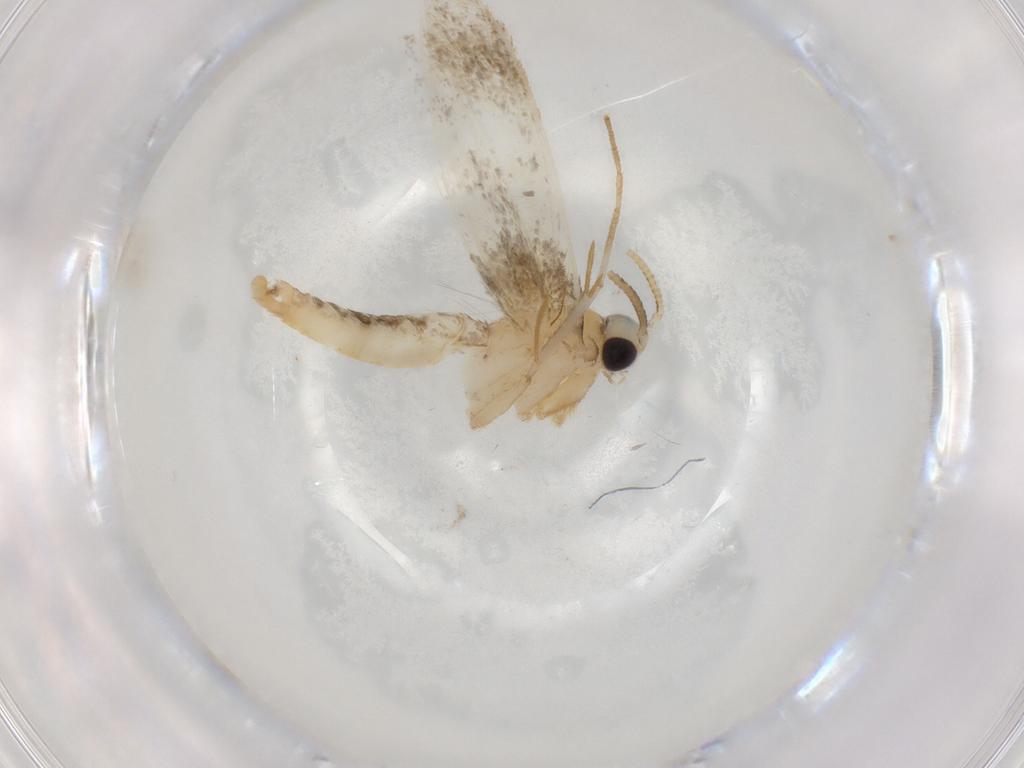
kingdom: Animalia
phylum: Arthropoda
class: Insecta
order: Lepidoptera
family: Tineidae
